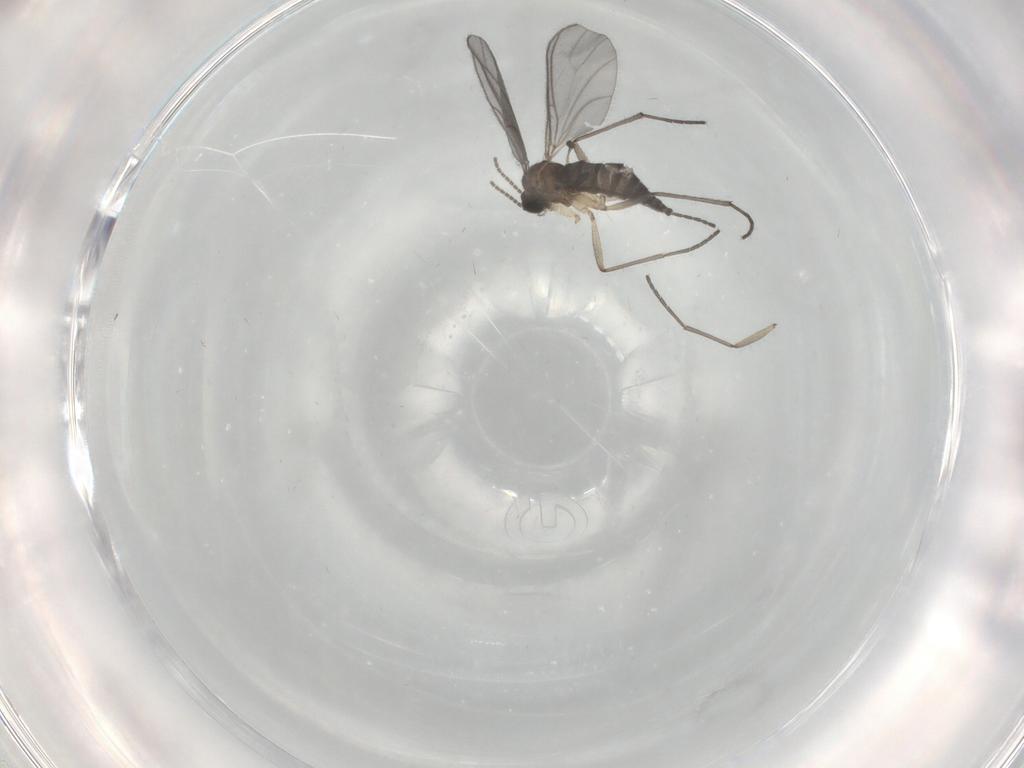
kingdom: Animalia
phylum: Arthropoda
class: Insecta
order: Diptera
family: Sciaridae
